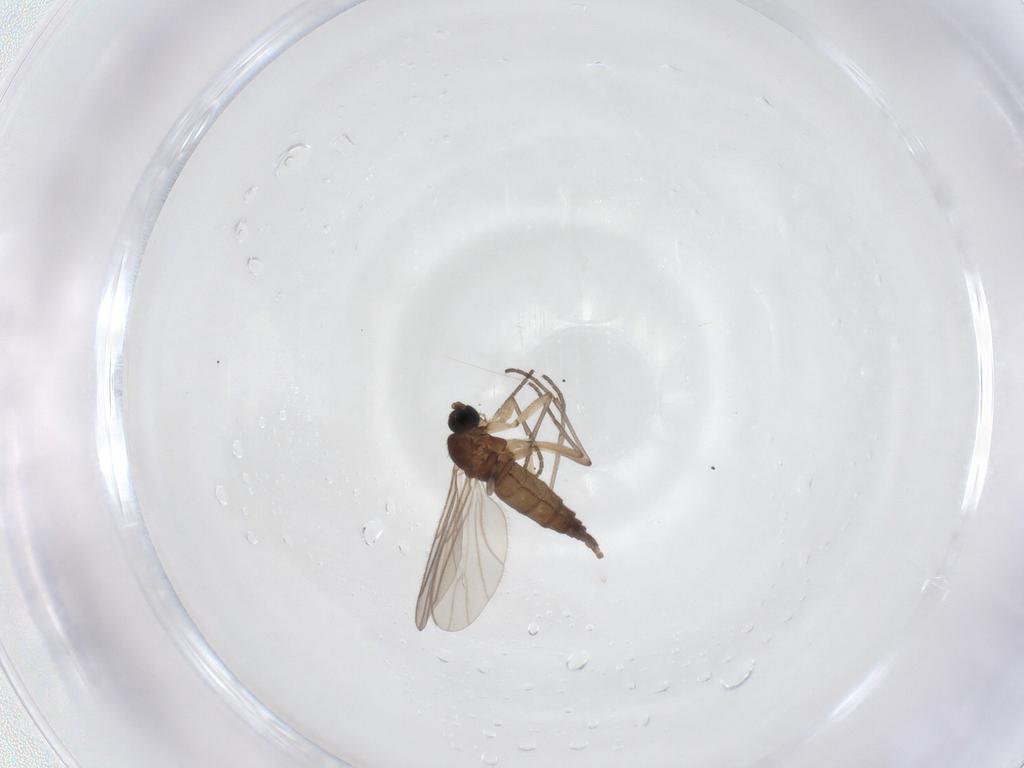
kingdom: Animalia
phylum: Arthropoda
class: Insecta
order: Diptera
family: Sciaridae
